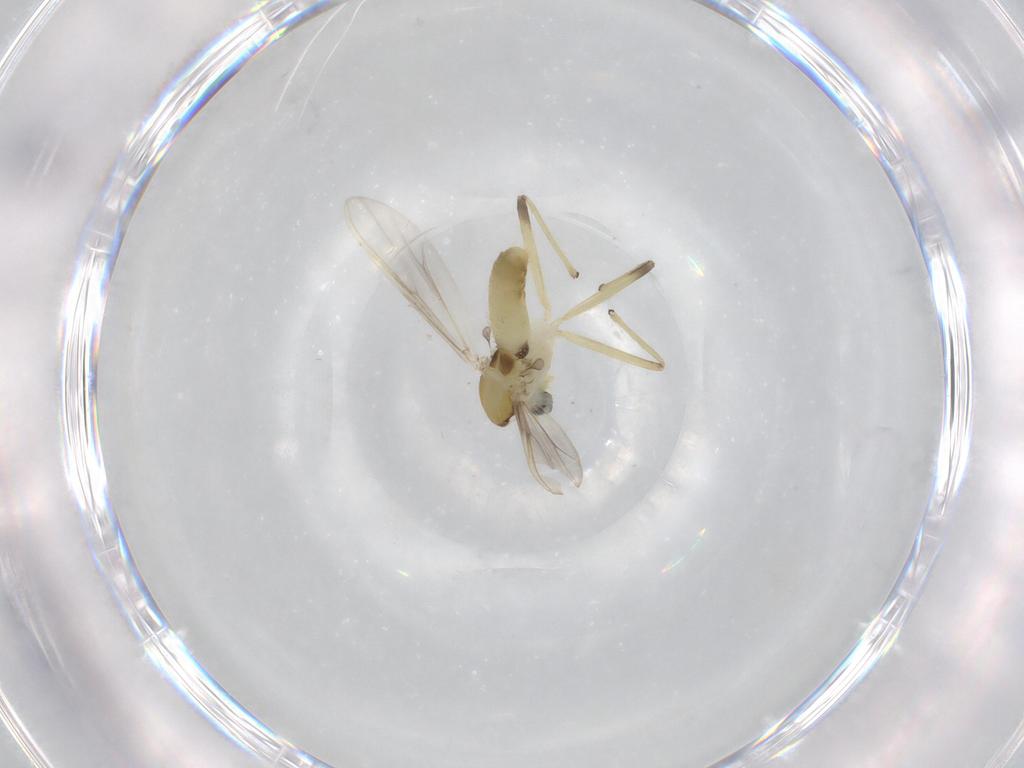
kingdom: Animalia
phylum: Arthropoda
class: Insecta
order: Diptera
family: Chironomidae
